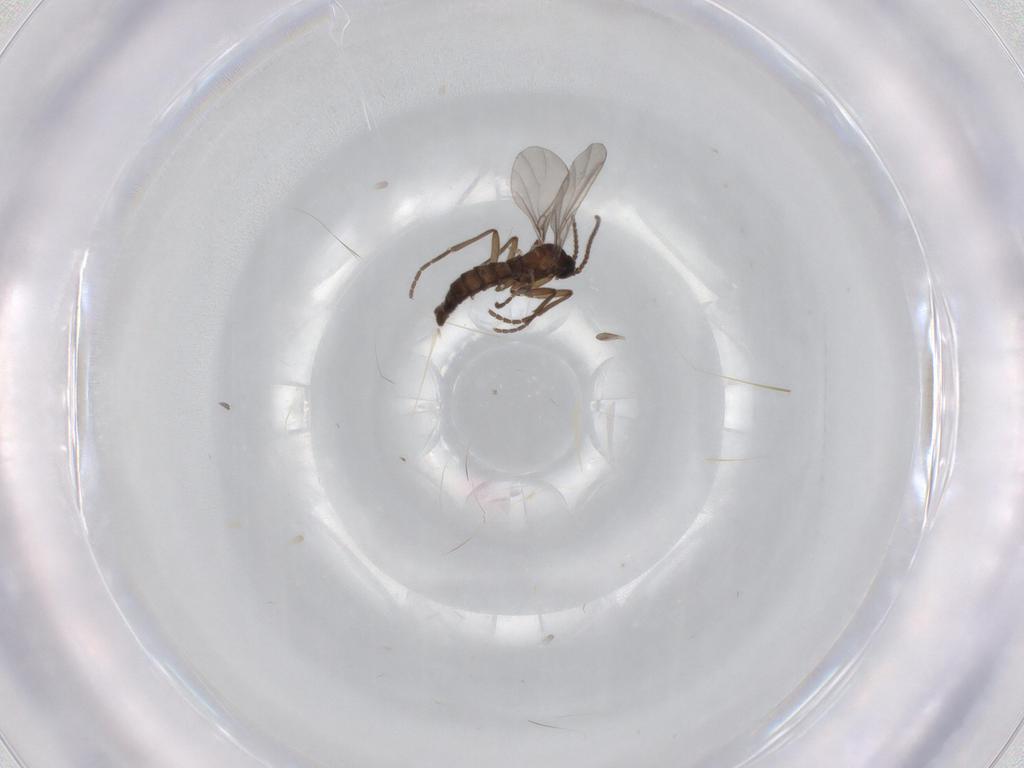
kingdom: Animalia
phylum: Arthropoda
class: Insecta
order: Diptera
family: Sciaridae
